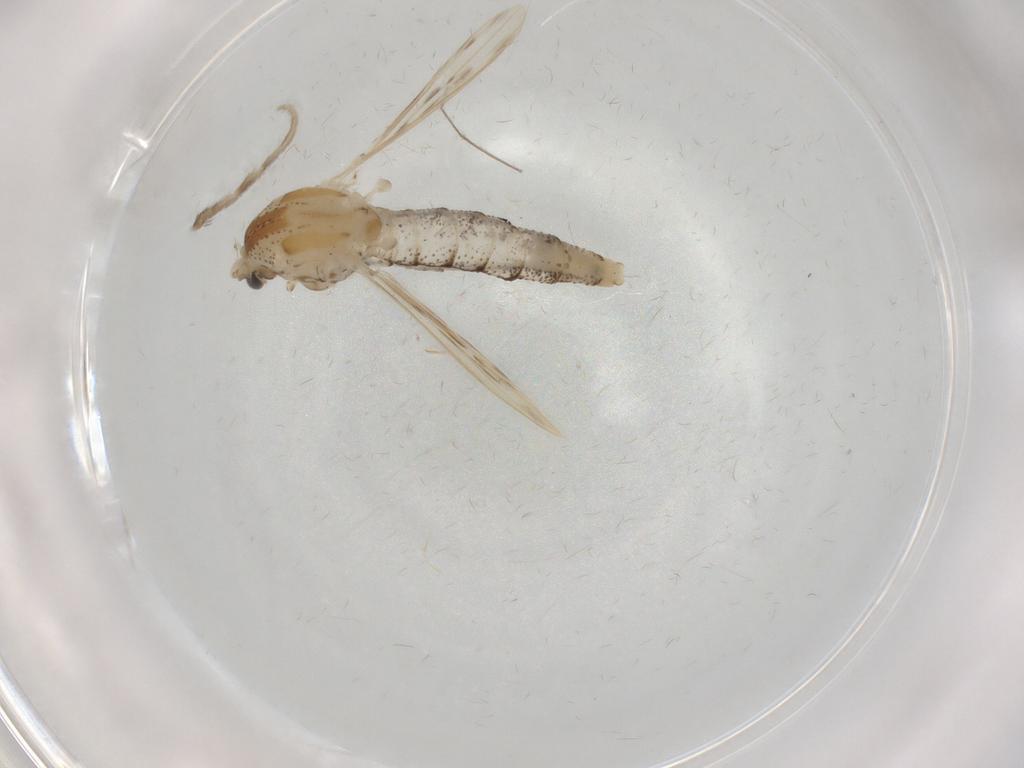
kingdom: Animalia
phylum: Arthropoda
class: Insecta
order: Diptera
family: Chaoboridae
